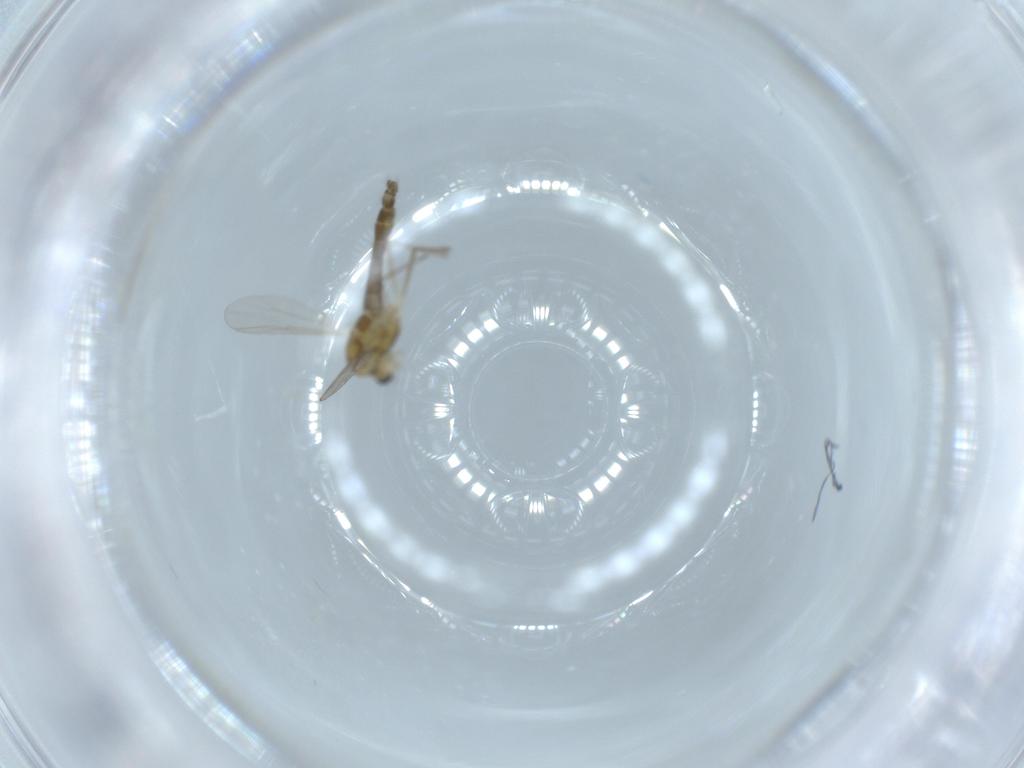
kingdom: Animalia
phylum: Arthropoda
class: Insecta
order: Diptera
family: Chironomidae
